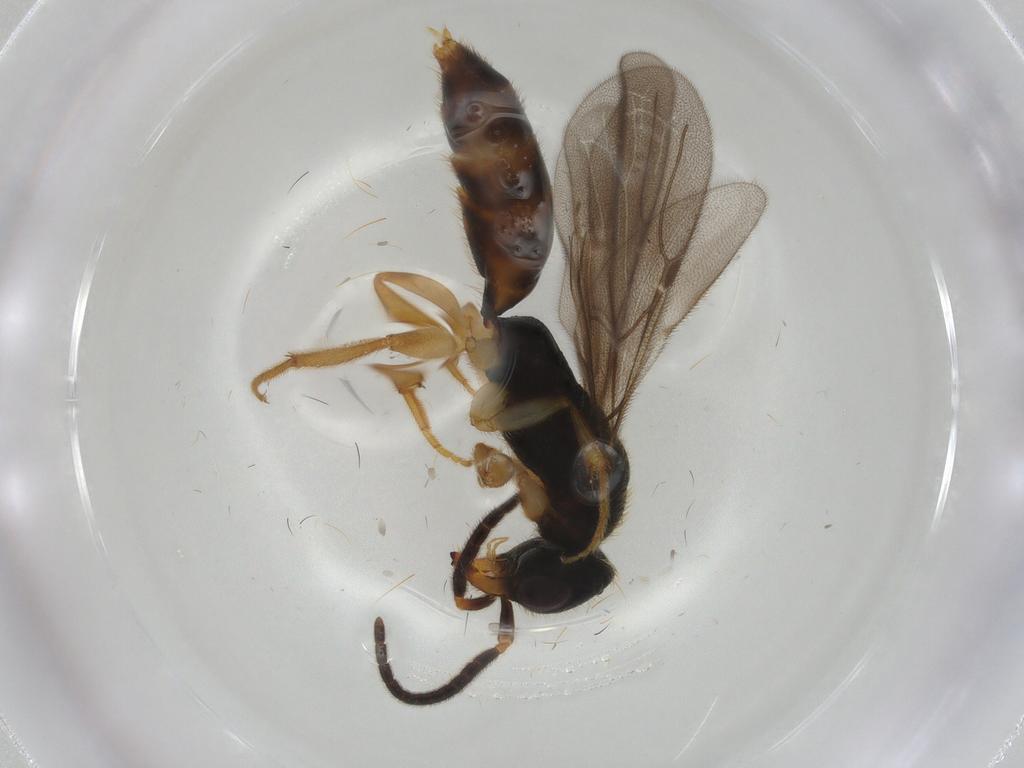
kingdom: Animalia
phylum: Arthropoda
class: Insecta
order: Hymenoptera
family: Bethylidae
